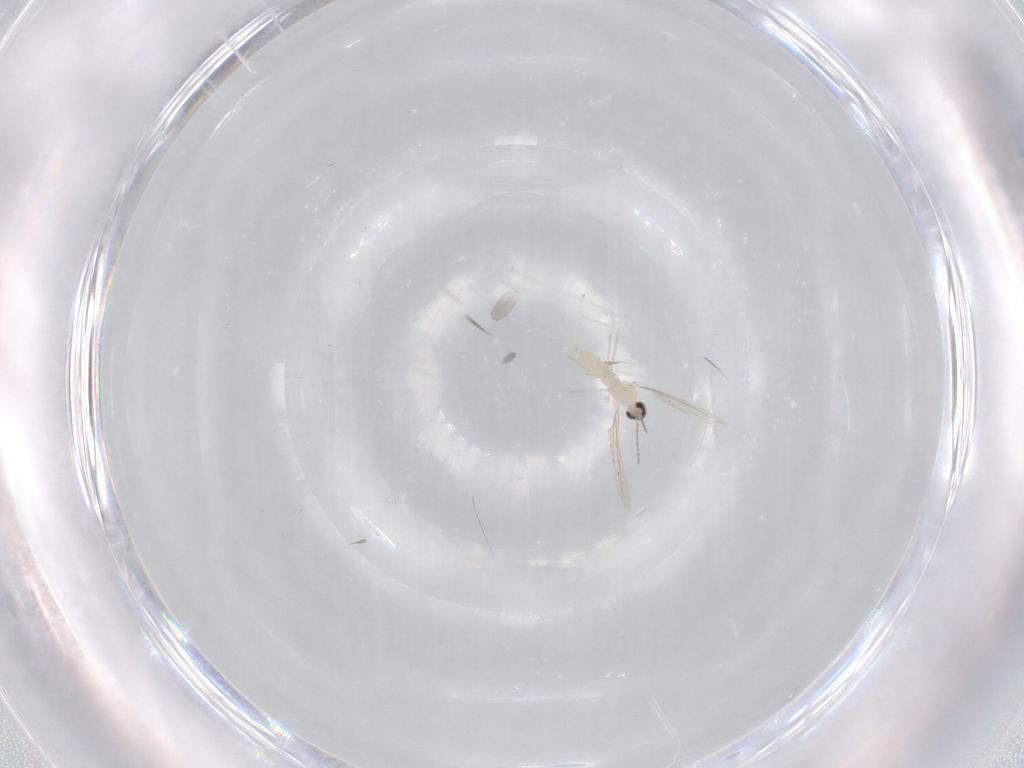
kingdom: Animalia
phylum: Arthropoda
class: Insecta
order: Diptera
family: Cecidomyiidae
